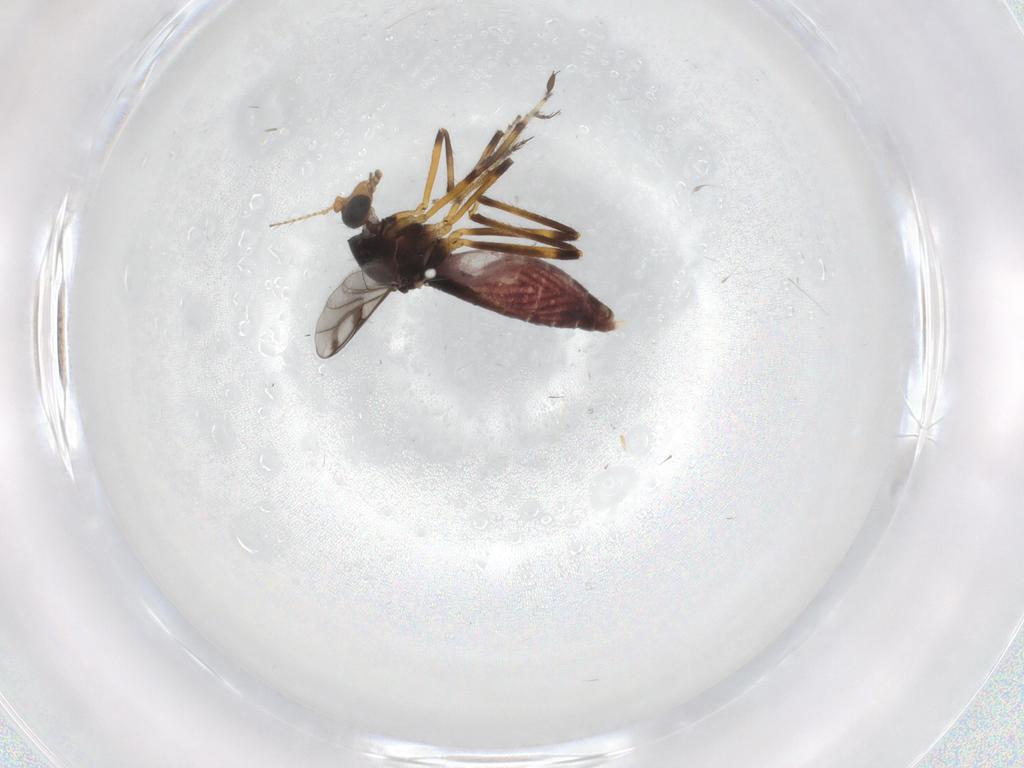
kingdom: Animalia
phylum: Arthropoda
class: Insecta
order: Diptera
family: Ceratopogonidae
